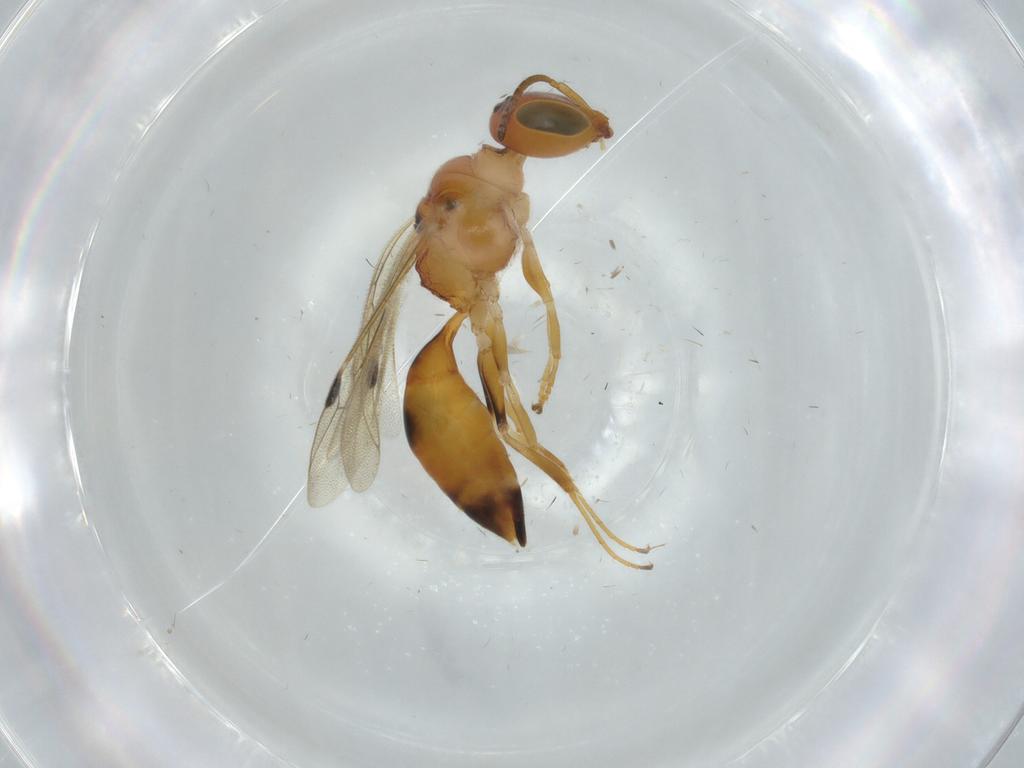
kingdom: Animalia
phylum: Arthropoda
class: Insecta
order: Hymenoptera
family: Pemphredonidae
